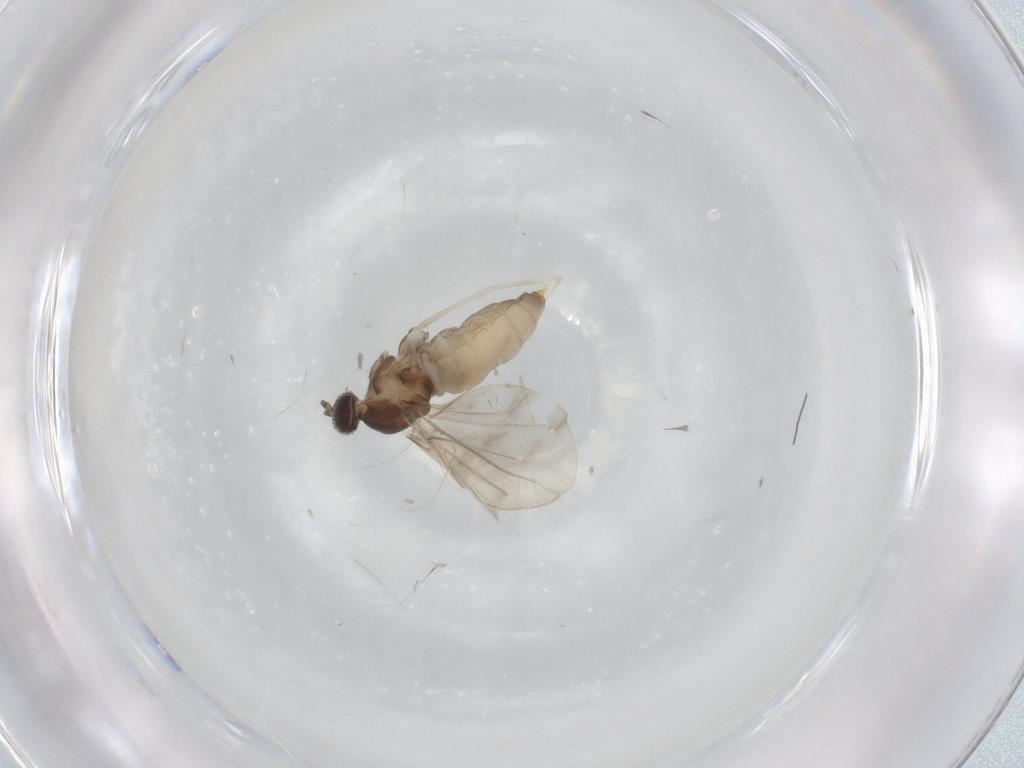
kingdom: Animalia
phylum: Arthropoda
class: Insecta
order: Diptera
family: Cecidomyiidae
